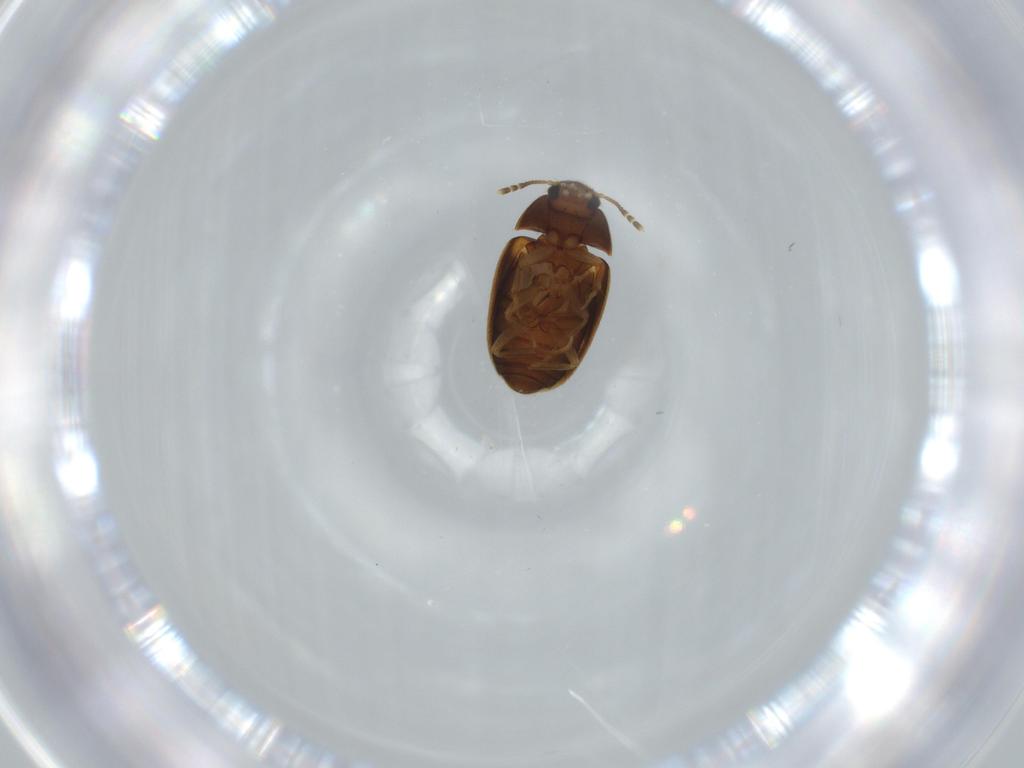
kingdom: Animalia
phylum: Arthropoda
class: Insecta
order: Coleoptera
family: Mycetophagidae
